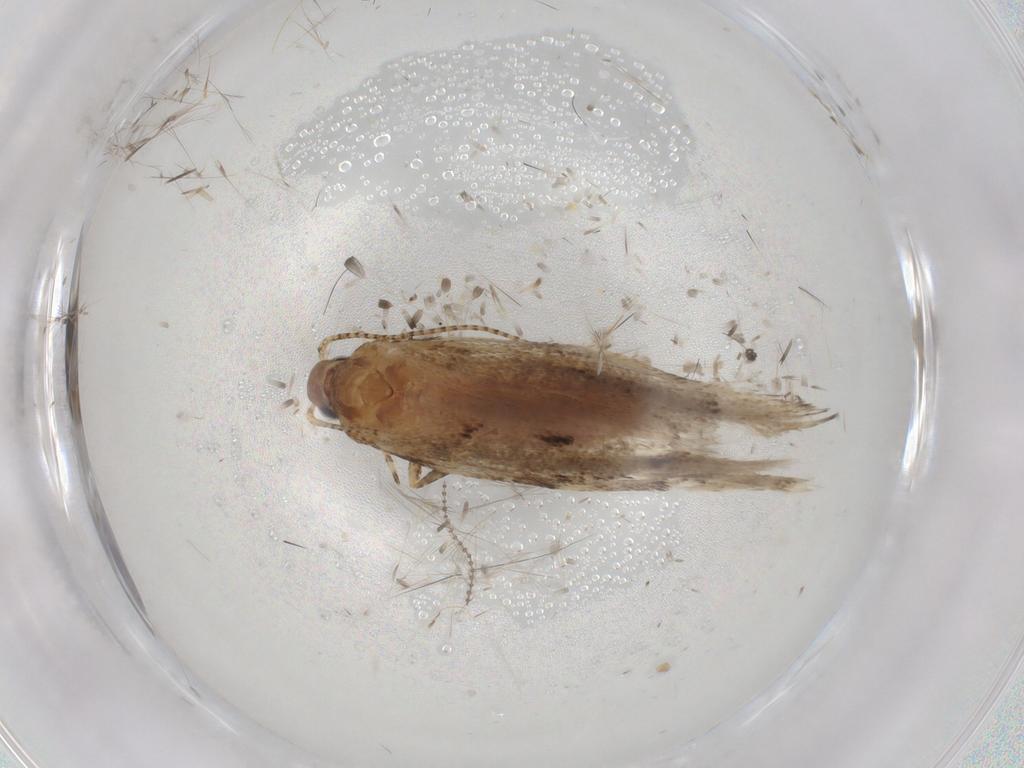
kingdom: Animalia
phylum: Arthropoda
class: Insecta
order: Lepidoptera
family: Gelechiidae
